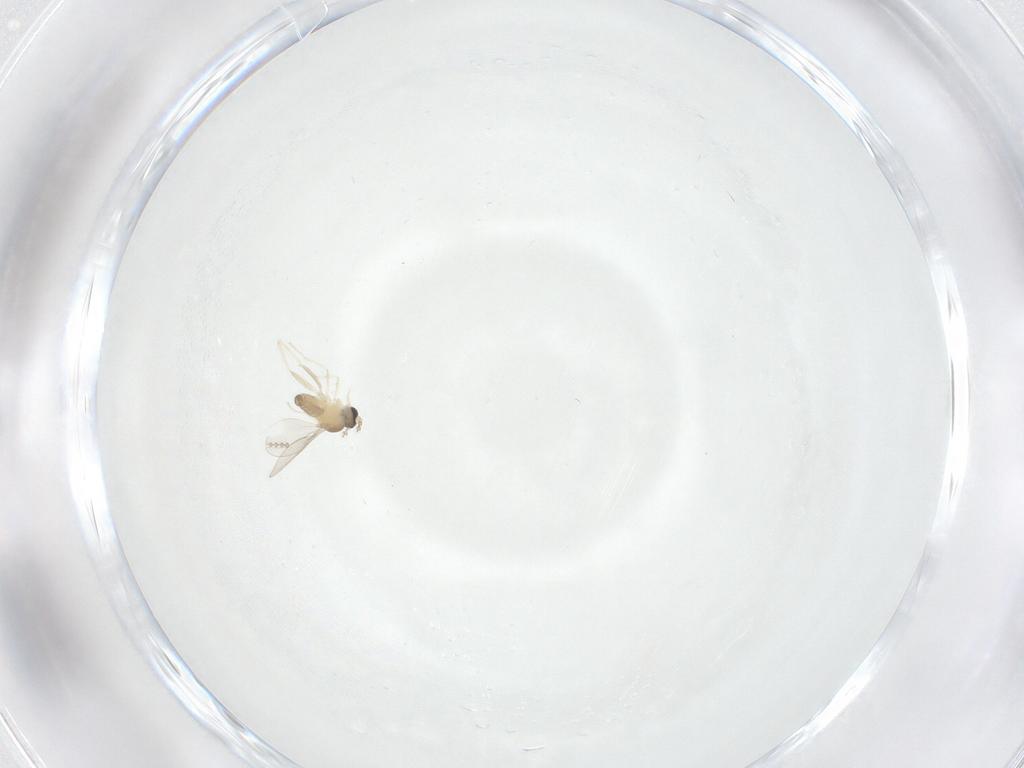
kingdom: Animalia
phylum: Arthropoda
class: Insecta
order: Diptera
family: Cecidomyiidae
